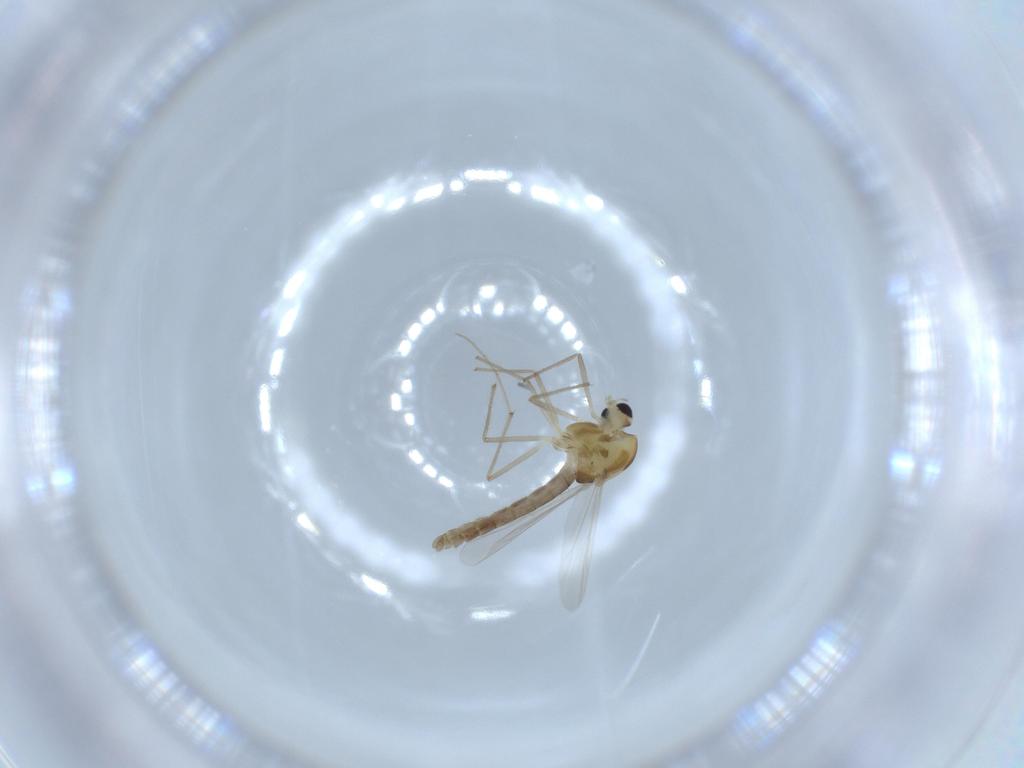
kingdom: Animalia
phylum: Arthropoda
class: Insecta
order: Diptera
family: Chironomidae
